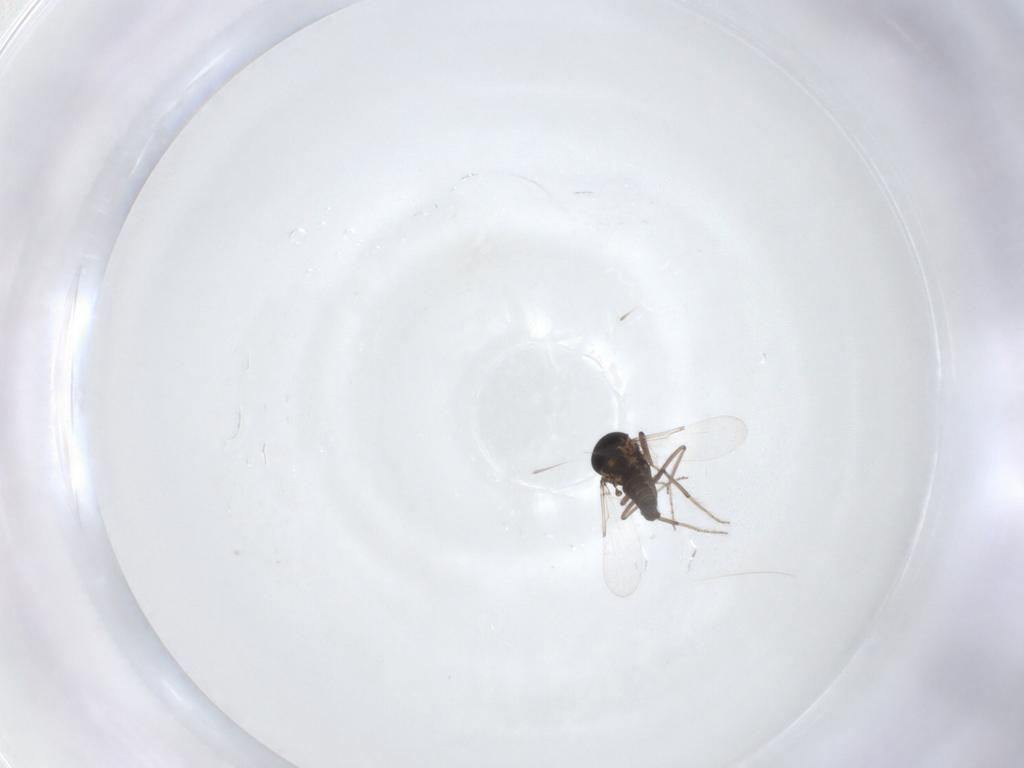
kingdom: Animalia
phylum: Arthropoda
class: Insecta
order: Diptera
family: Ceratopogonidae
